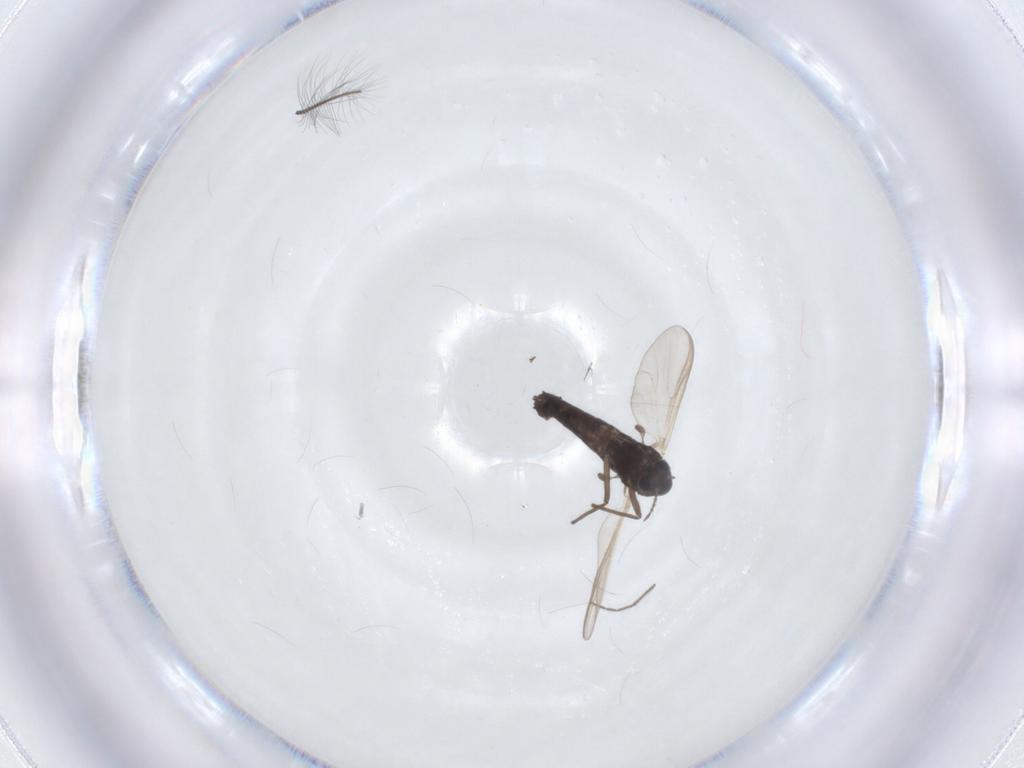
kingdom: Animalia
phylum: Arthropoda
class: Insecta
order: Diptera
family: Chironomidae
